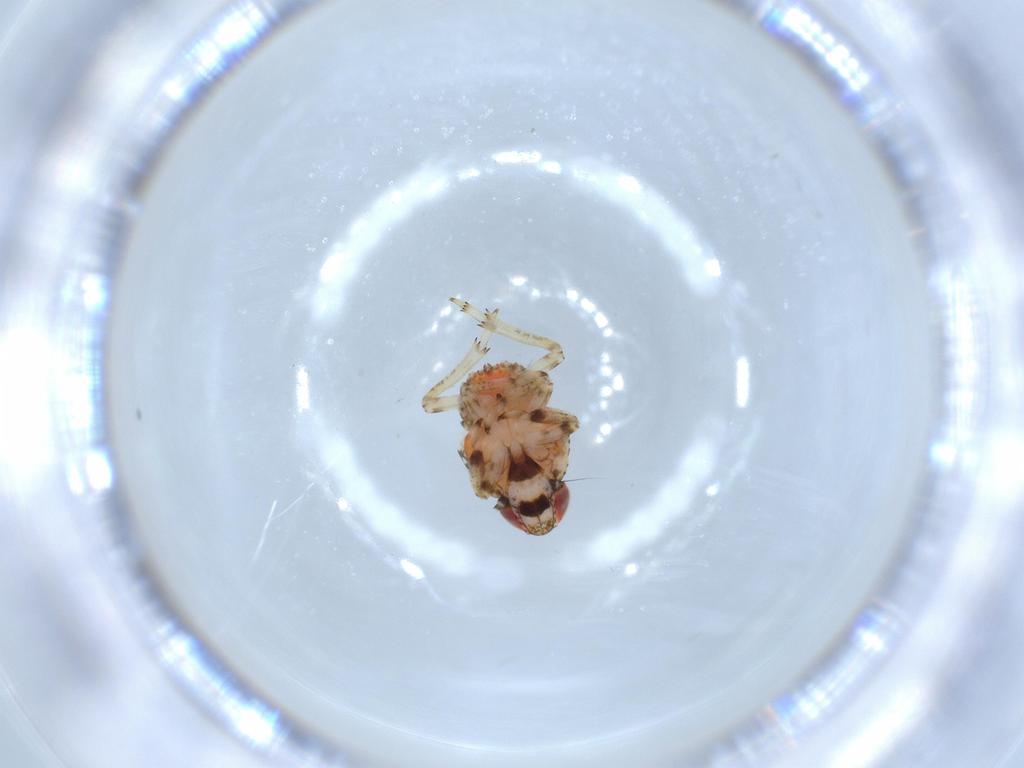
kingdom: Animalia
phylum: Arthropoda
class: Insecta
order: Hemiptera
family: Issidae
